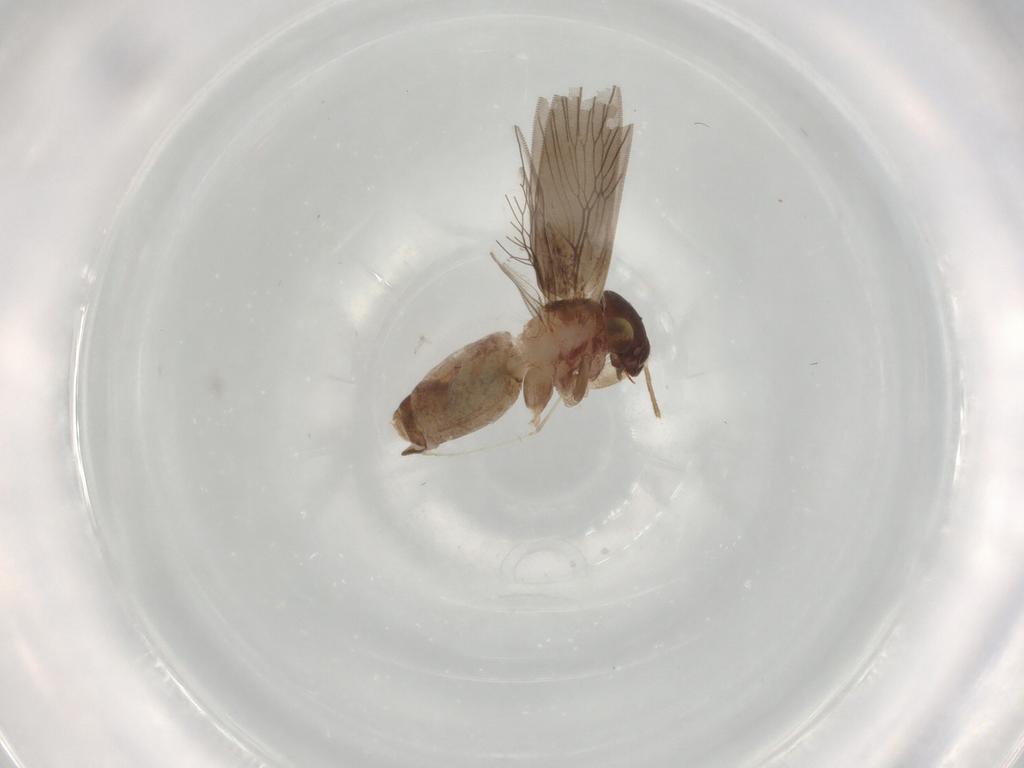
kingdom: Animalia
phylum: Arthropoda
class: Insecta
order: Psocodea
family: Lepidopsocidae
